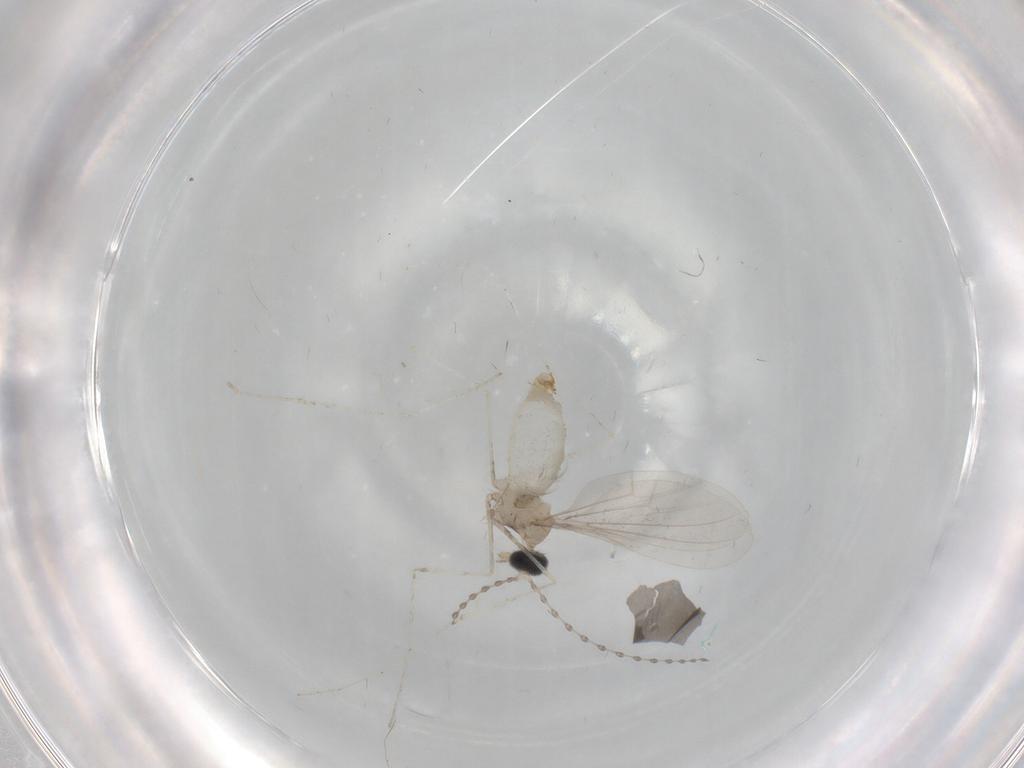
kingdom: Animalia
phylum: Arthropoda
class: Insecta
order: Diptera
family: Cecidomyiidae
